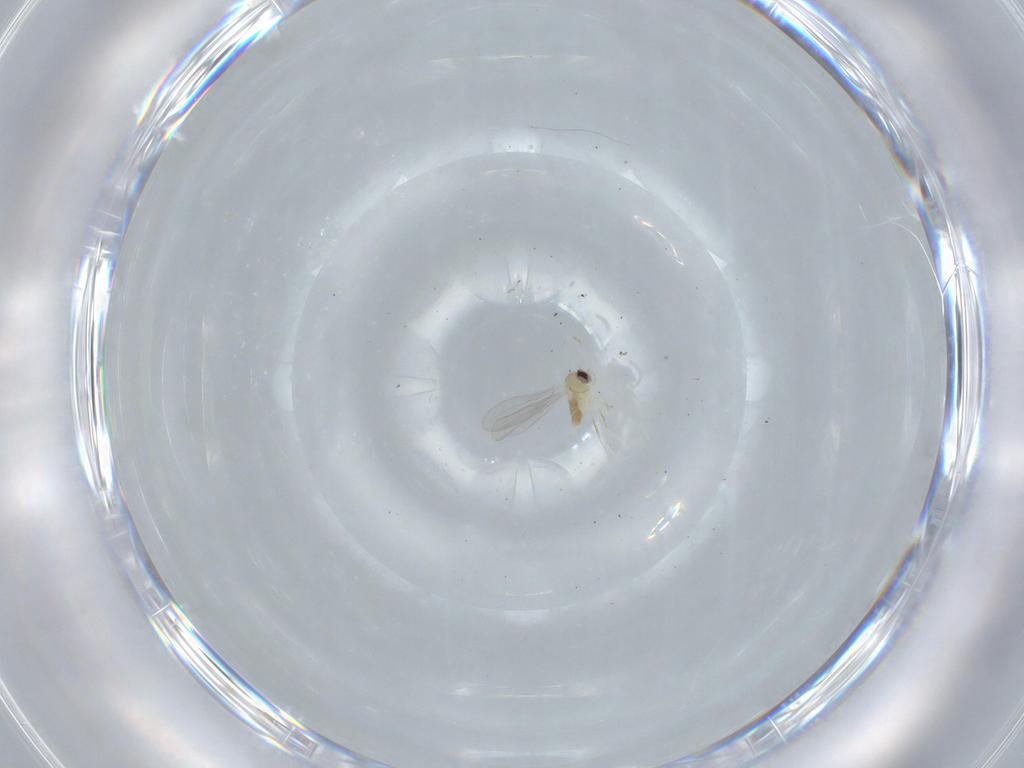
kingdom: Animalia
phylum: Arthropoda
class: Insecta
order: Diptera
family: Cecidomyiidae
